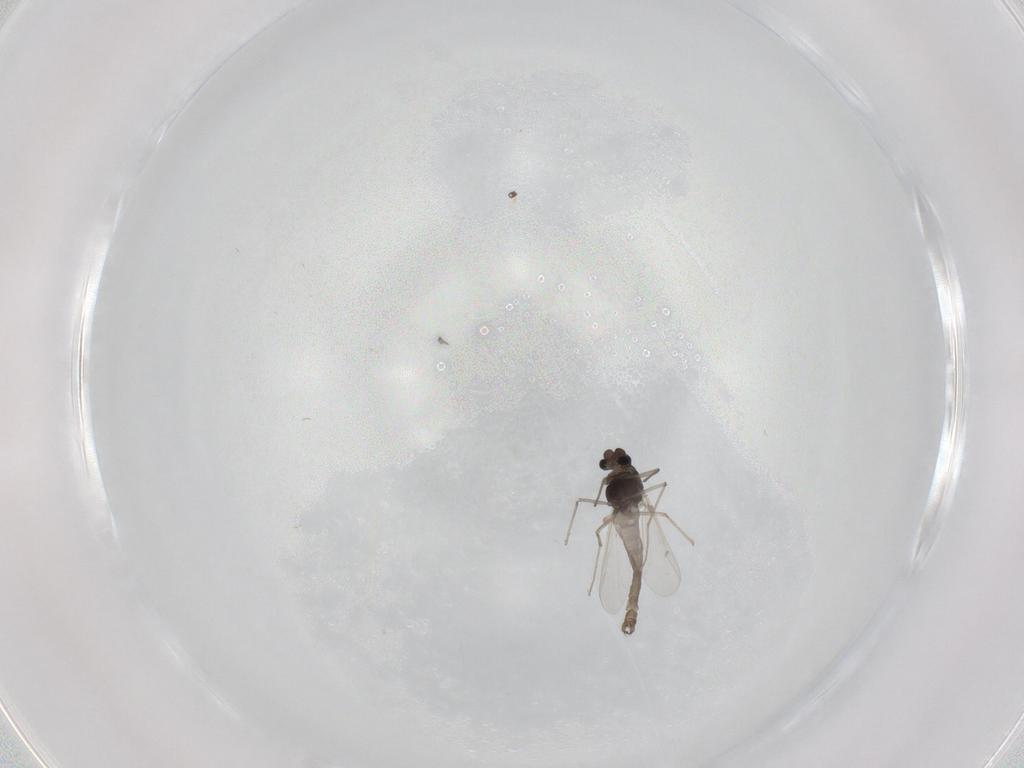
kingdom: Animalia
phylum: Arthropoda
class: Insecta
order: Diptera
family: Chironomidae
